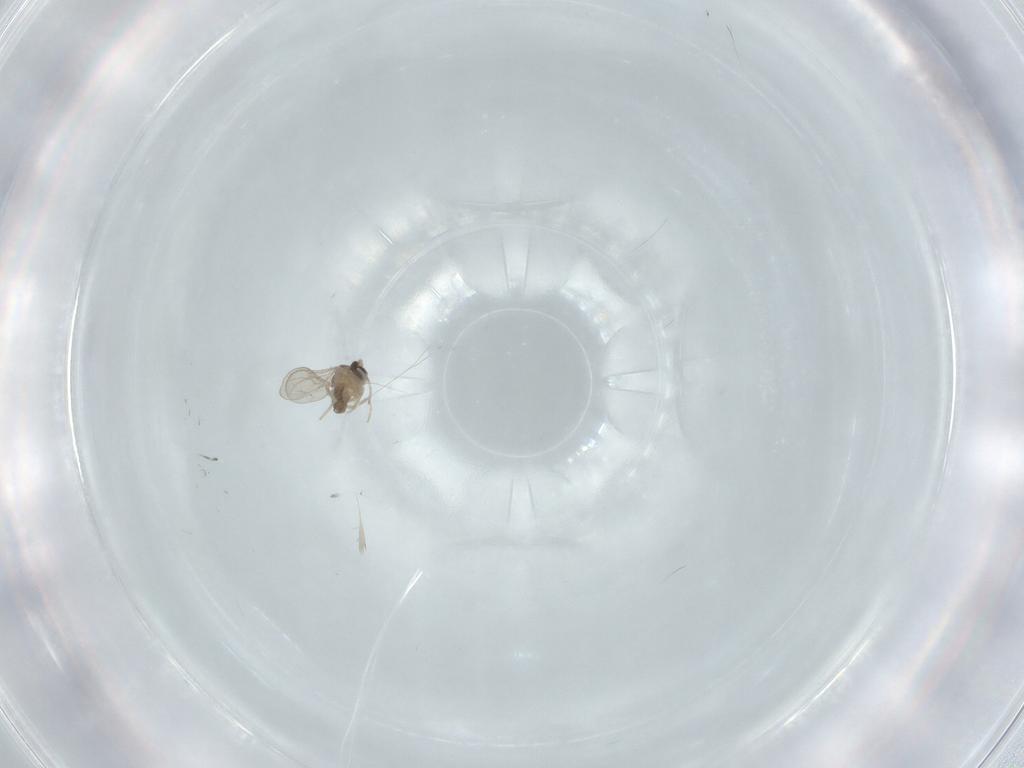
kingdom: Animalia
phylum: Arthropoda
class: Insecta
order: Diptera
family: Cecidomyiidae
